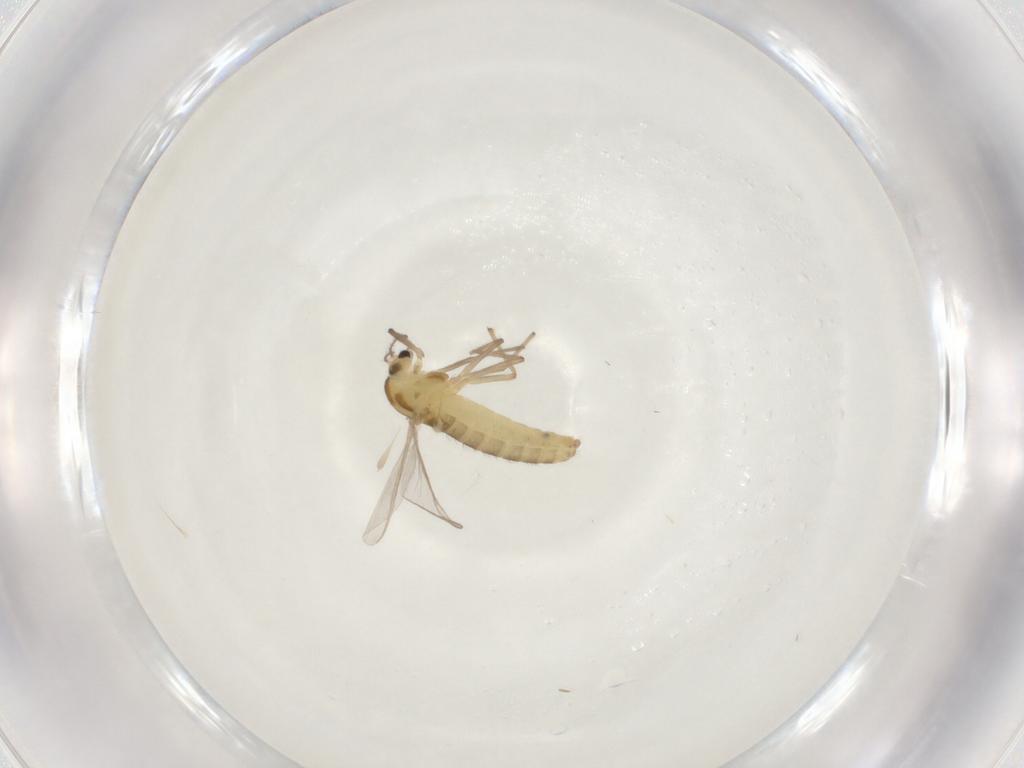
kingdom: Animalia
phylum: Arthropoda
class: Insecta
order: Diptera
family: Chironomidae
